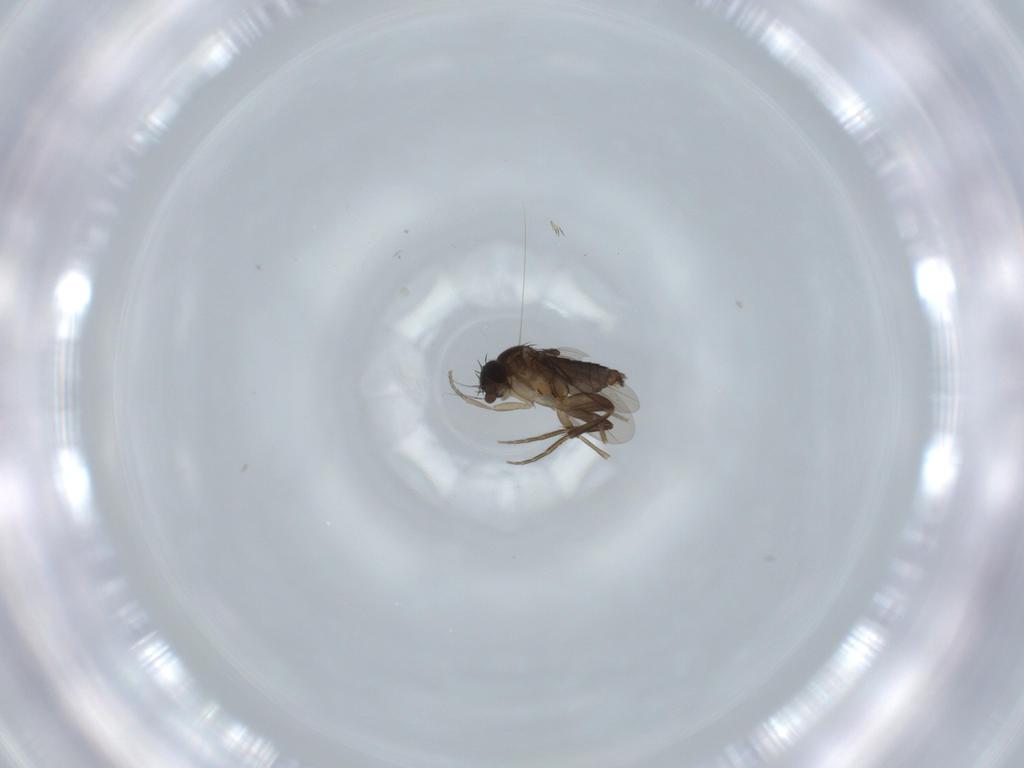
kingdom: Animalia
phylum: Arthropoda
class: Insecta
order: Diptera
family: Phoridae
